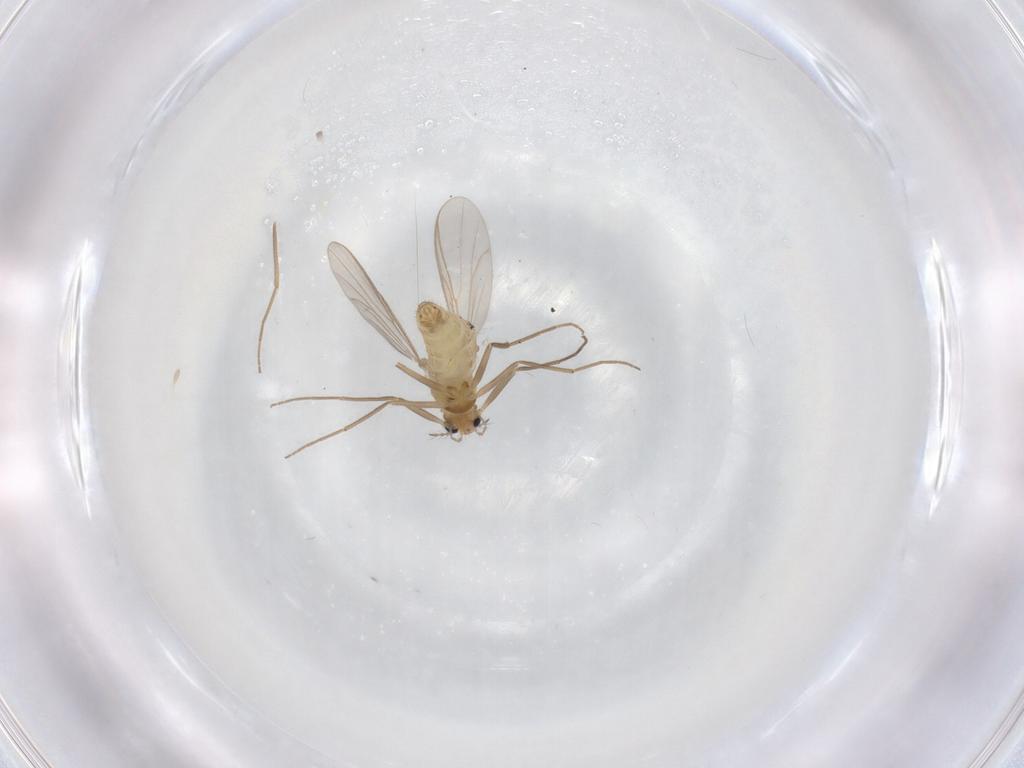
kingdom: Animalia
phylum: Arthropoda
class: Insecta
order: Diptera
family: Chironomidae
